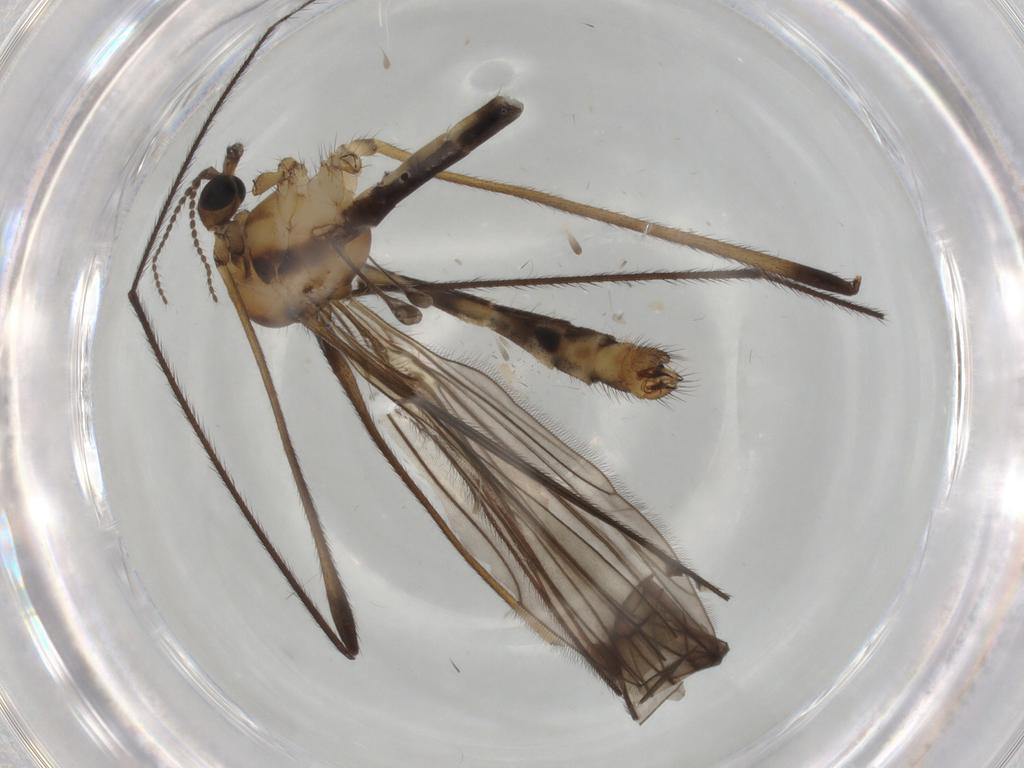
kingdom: Animalia
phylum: Arthropoda
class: Insecta
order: Diptera
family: Limoniidae
